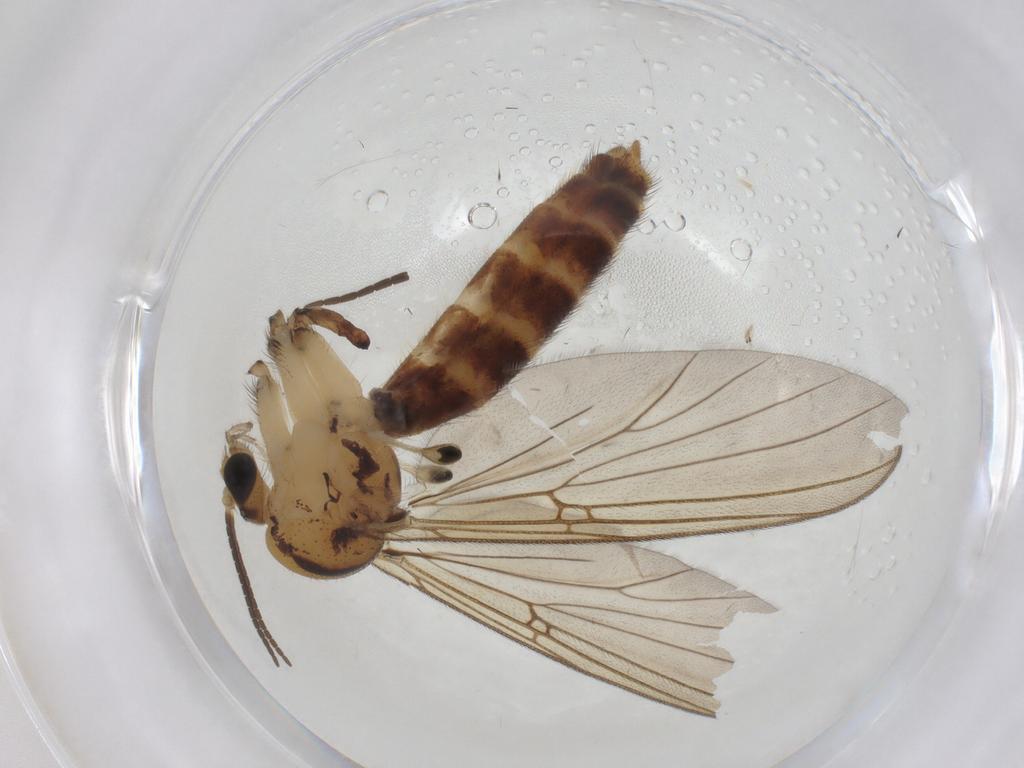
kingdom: Animalia
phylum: Arthropoda
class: Insecta
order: Diptera
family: Mycetophilidae
